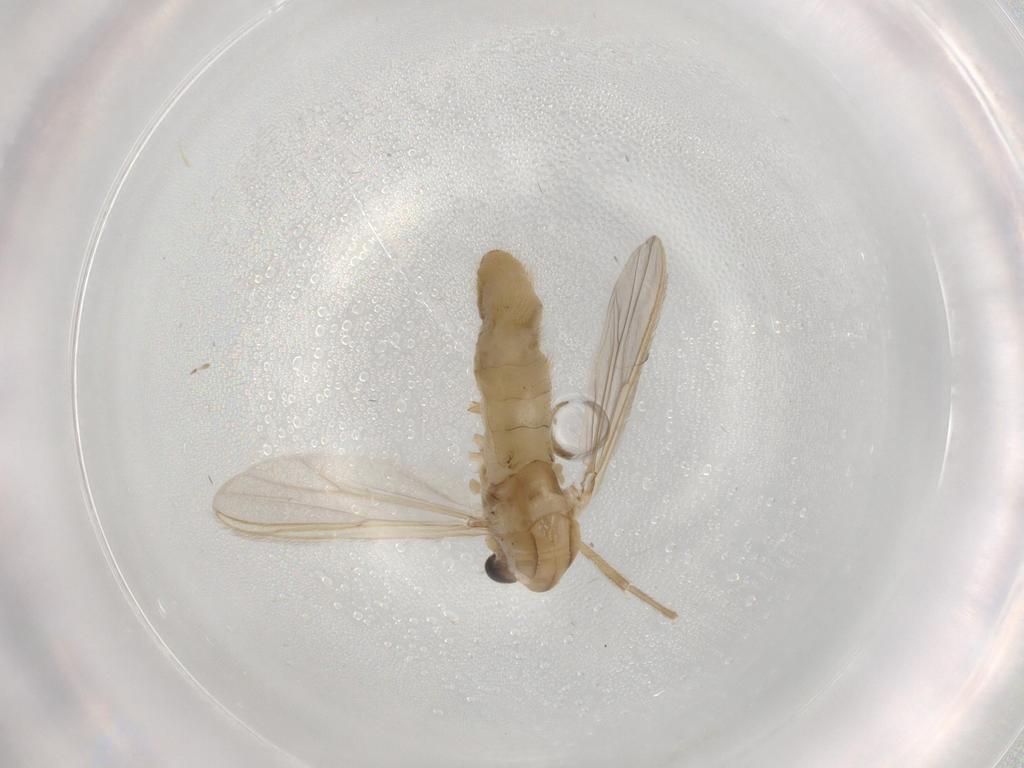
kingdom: Animalia
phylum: Arthropoda
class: Insecta
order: Diptera
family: Chironomidae
